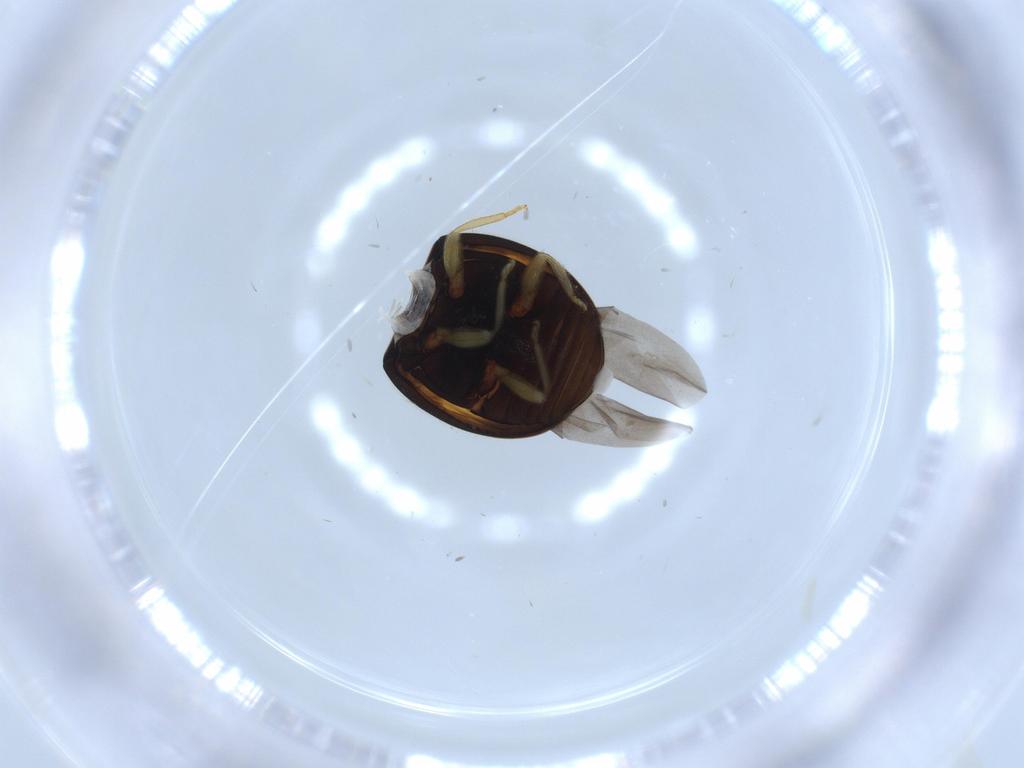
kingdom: Animalia
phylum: Arthropoda
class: Insecta
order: Coleoptera
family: Coccinellidae
